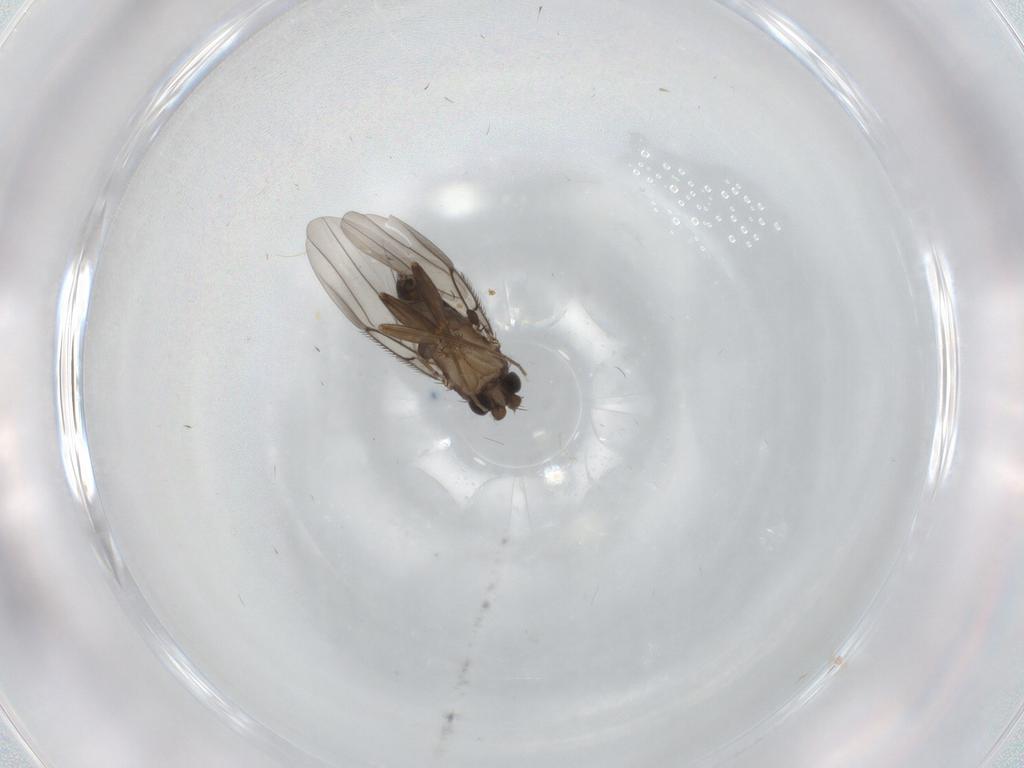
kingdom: Animalia
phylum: Arthropoda
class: Insecta
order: Diptera
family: Phoridae
